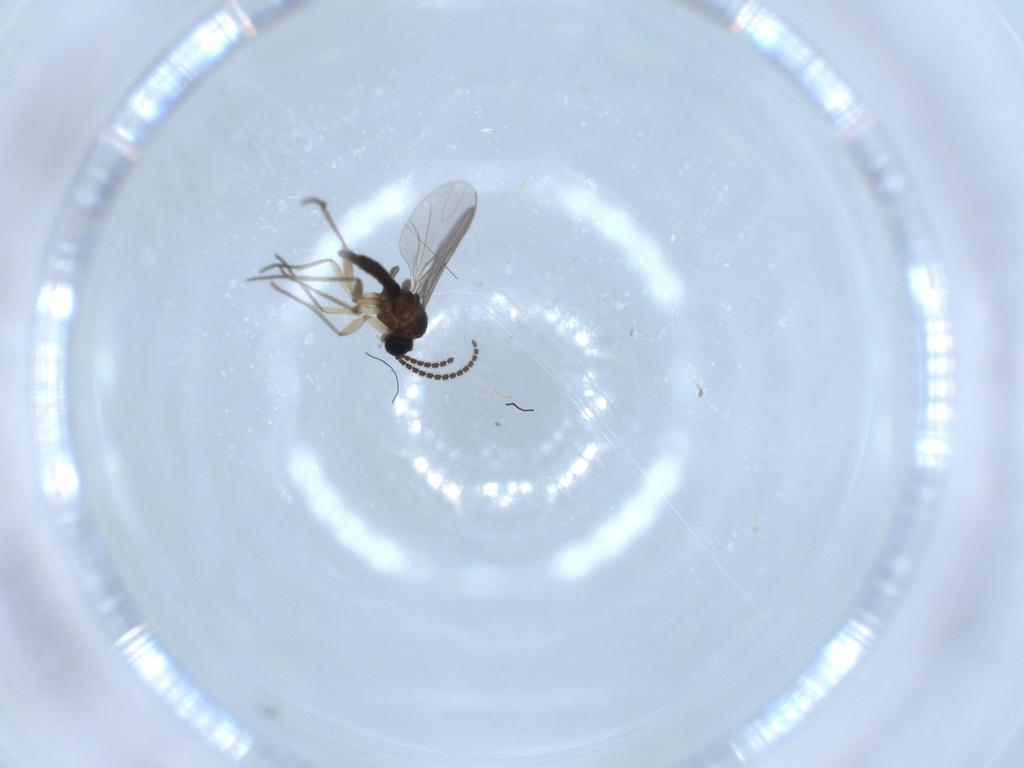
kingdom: Animalia
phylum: Arthropoda
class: Insecta
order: Diptera
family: Sciaridae
